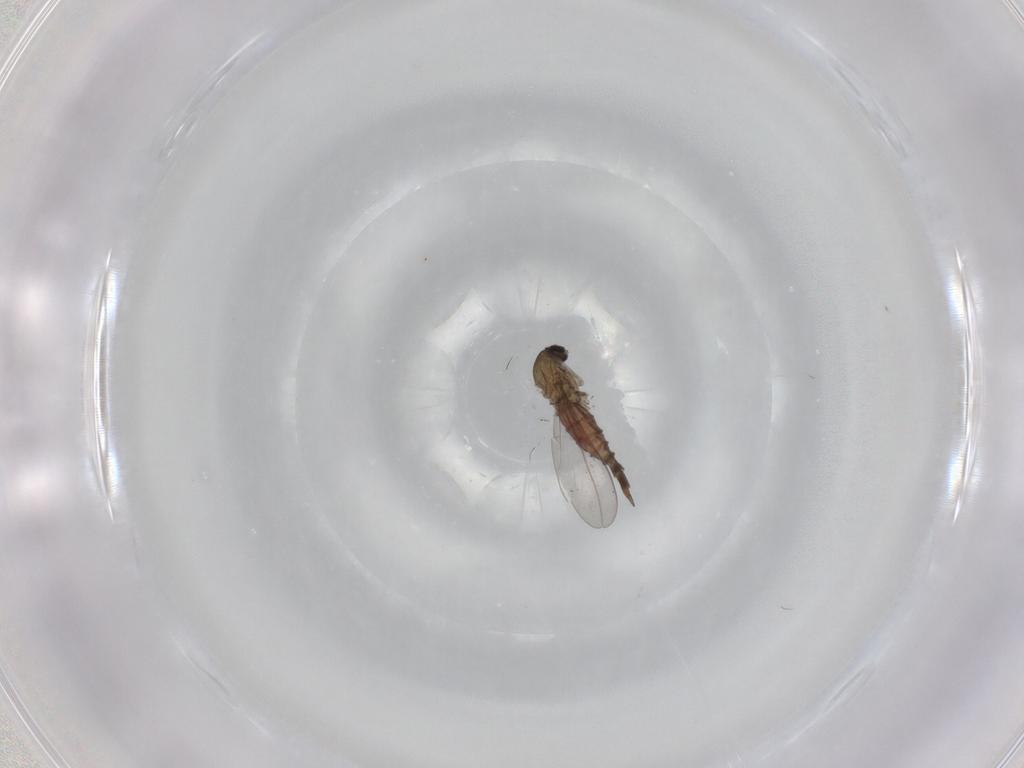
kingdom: Animalia
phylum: Arthropoda
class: Insecta
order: Diptera
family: Cecidomyiidae
